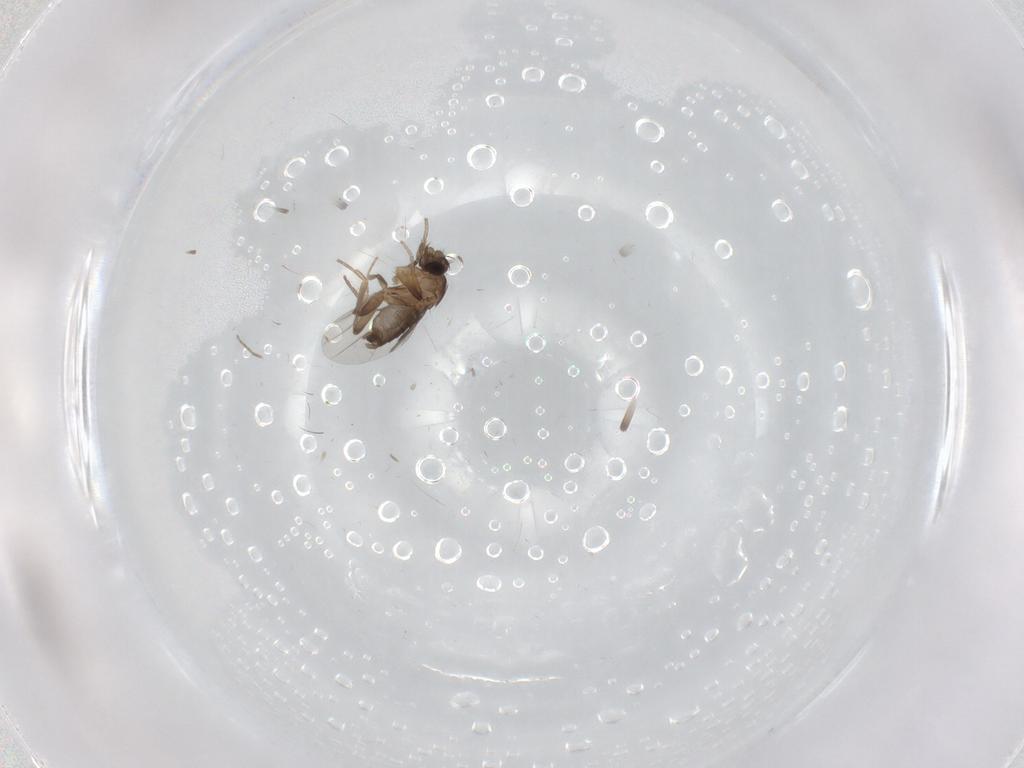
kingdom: Animalia
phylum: Arthropoda
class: Insecta
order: Diptera
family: Phoridae
